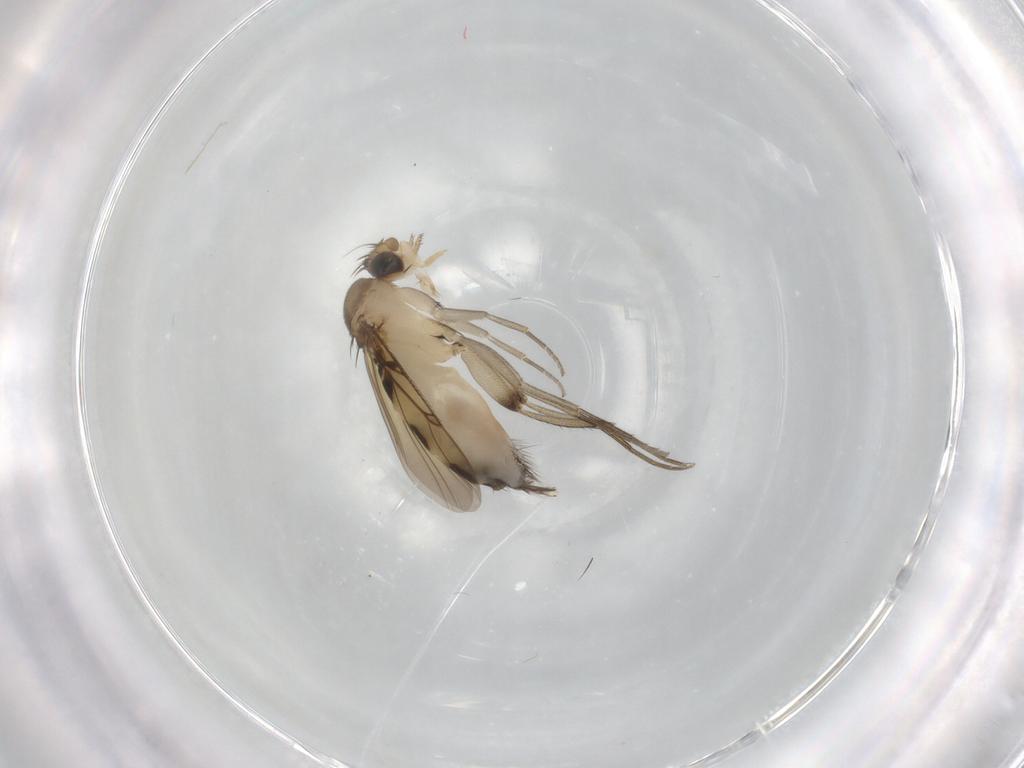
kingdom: Animalia
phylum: Arthropoda
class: Insecta
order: Diptera
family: Phoridae
